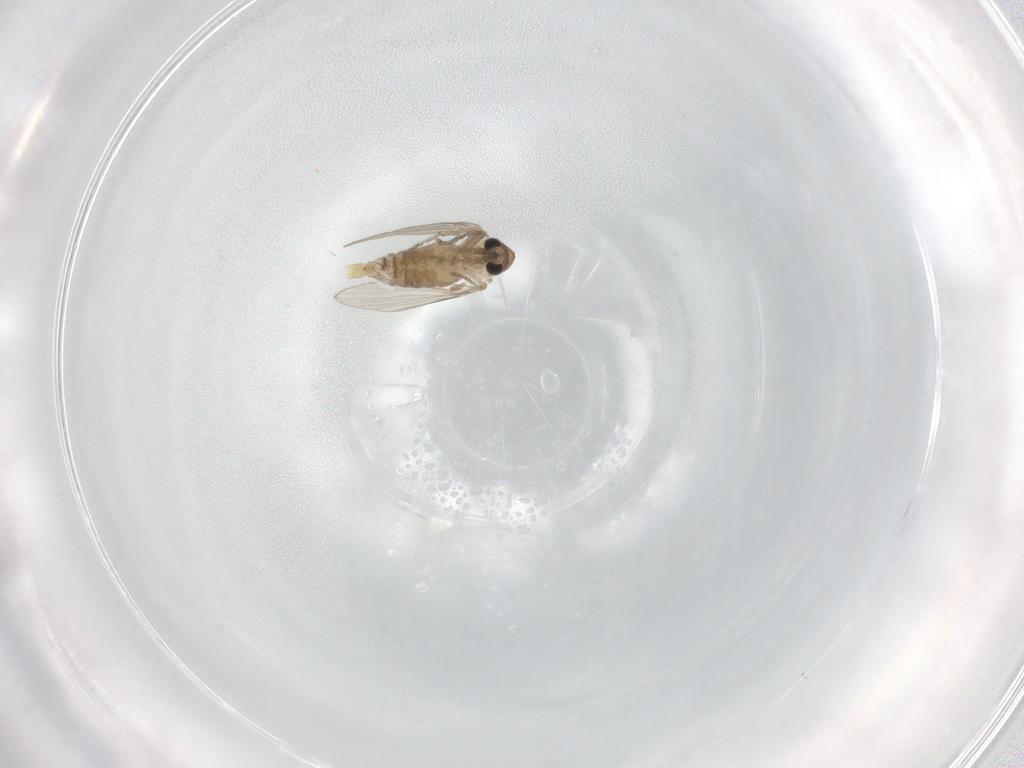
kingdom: Animalia
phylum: Arthropoda
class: Insecta
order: Diptera
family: Psychodidae
